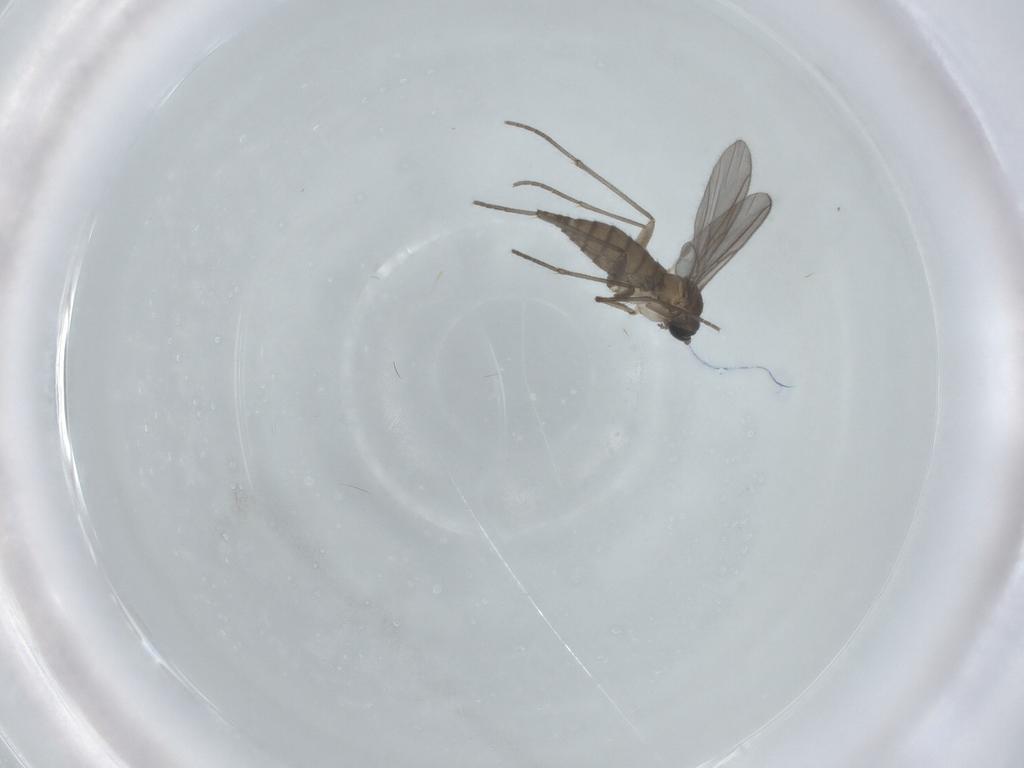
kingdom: Animalia
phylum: Arthropoda
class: Insecta
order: Diptera
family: Sciaridae
